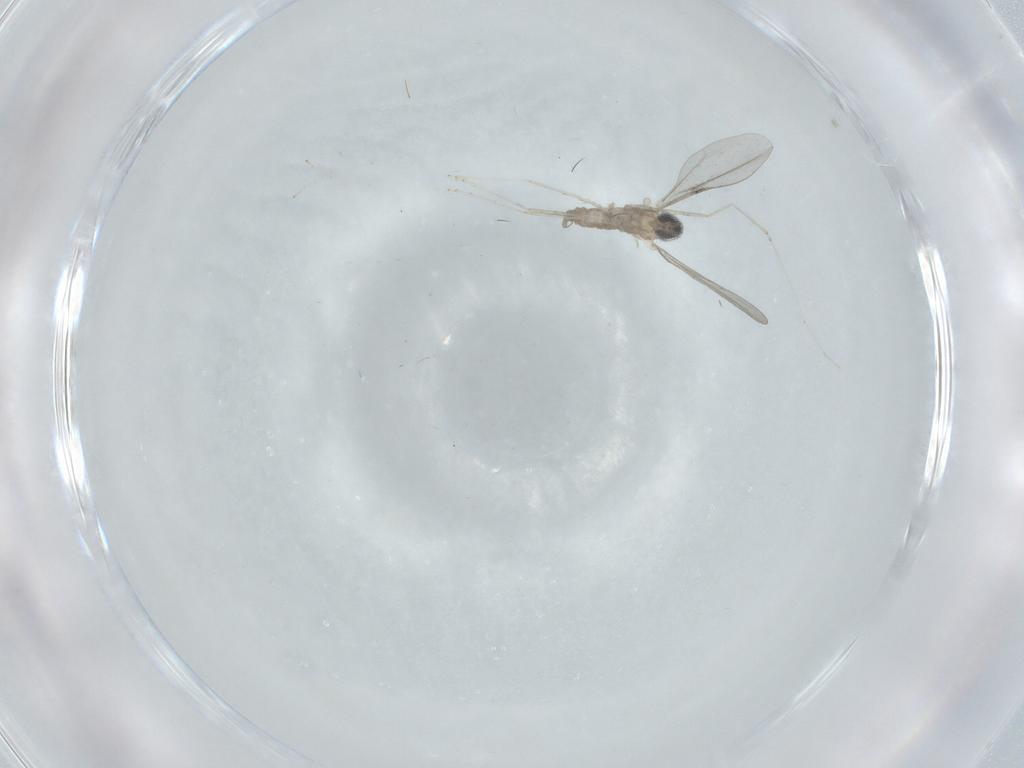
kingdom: Animalia
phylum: Arthropoda
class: Insecta
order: Diptera
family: Cecidomyiidae
